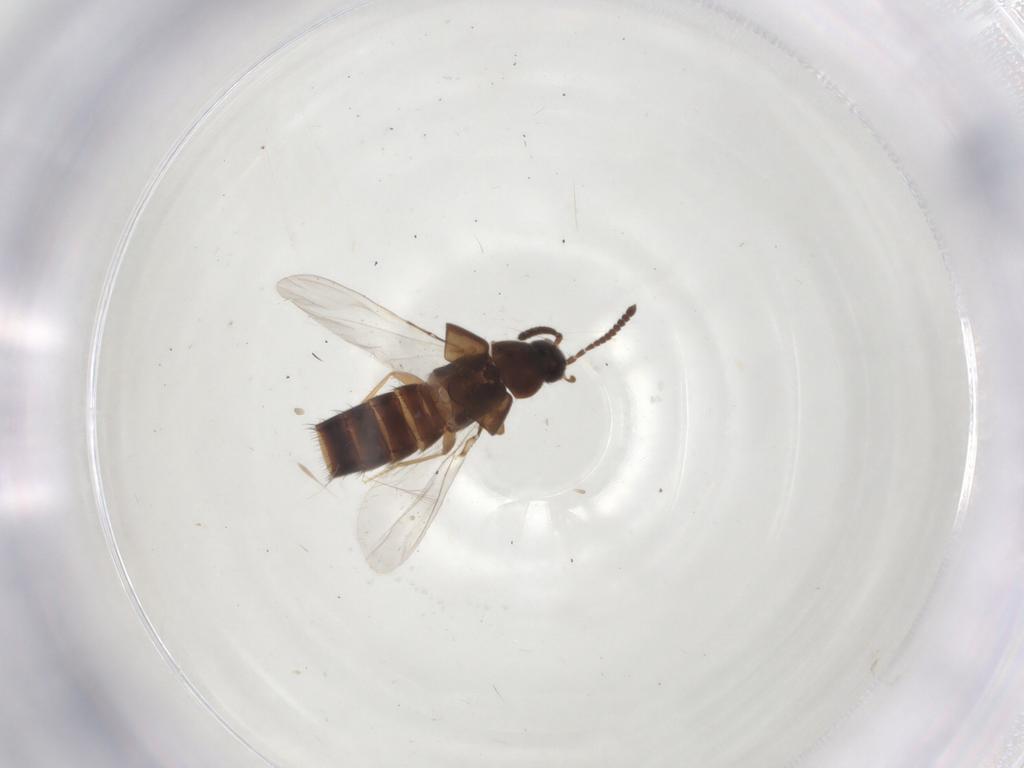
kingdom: Animalia
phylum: Arthropoda
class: Insecta
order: Coleoptera
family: Staphylinidae
